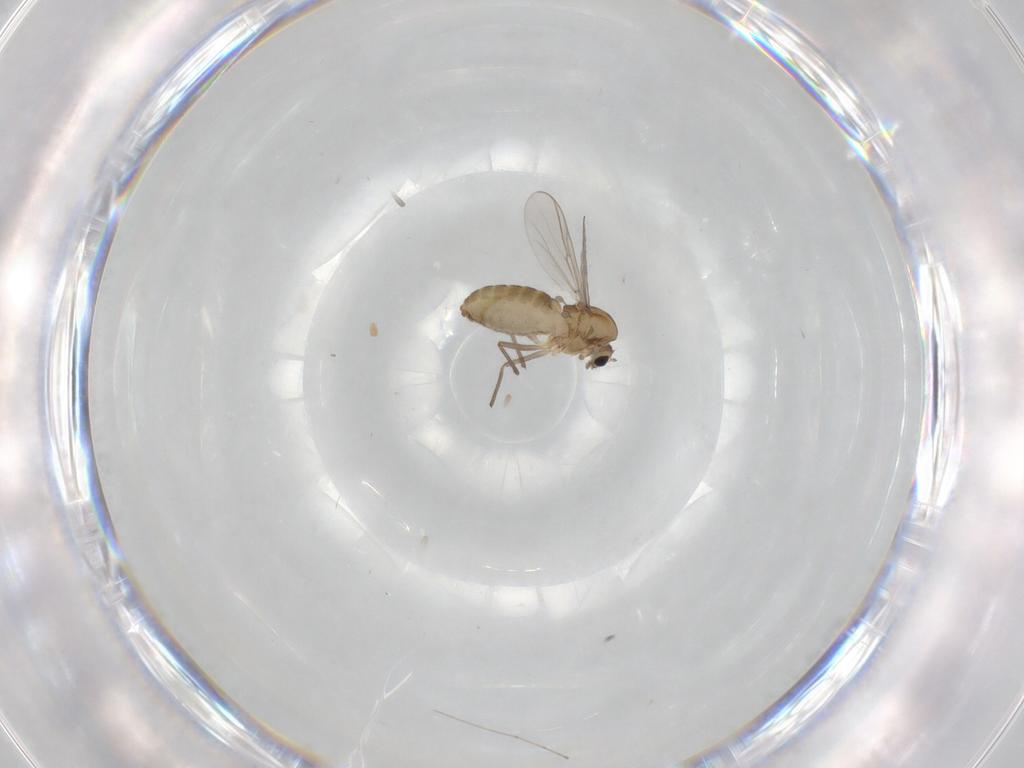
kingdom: Animalia
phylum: Arthropoda
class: Insecta
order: Diptera
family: Chironomidae
